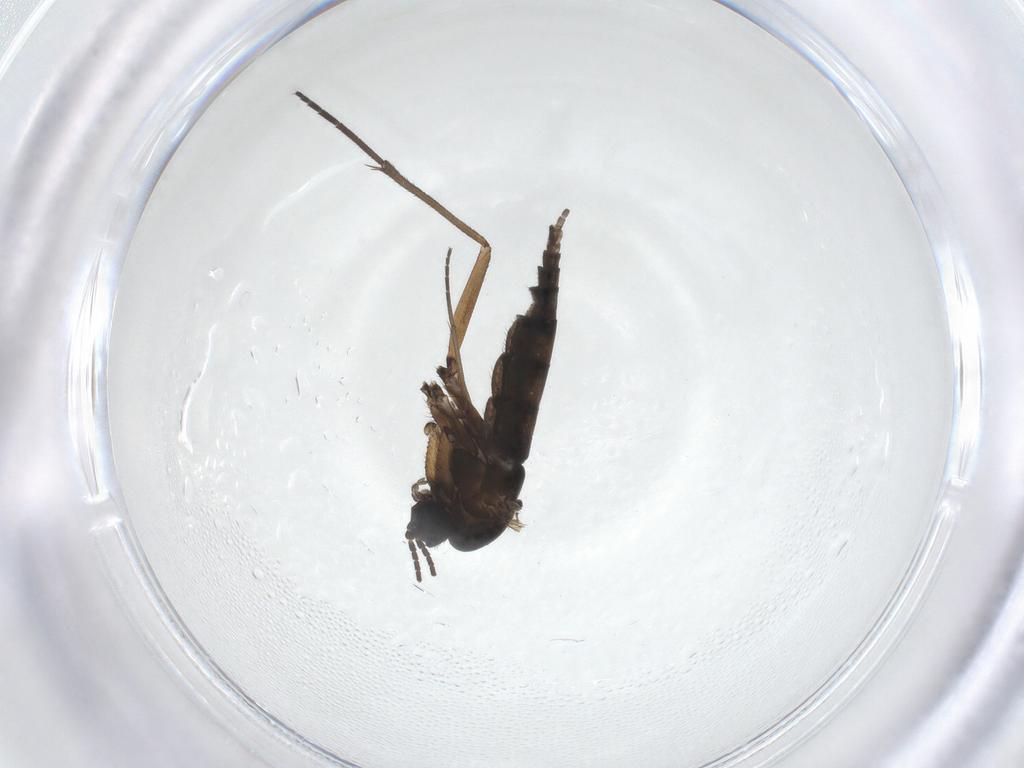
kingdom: Animalia
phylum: Arthropoda
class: Insecta
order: Diptera
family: Sciaridae
